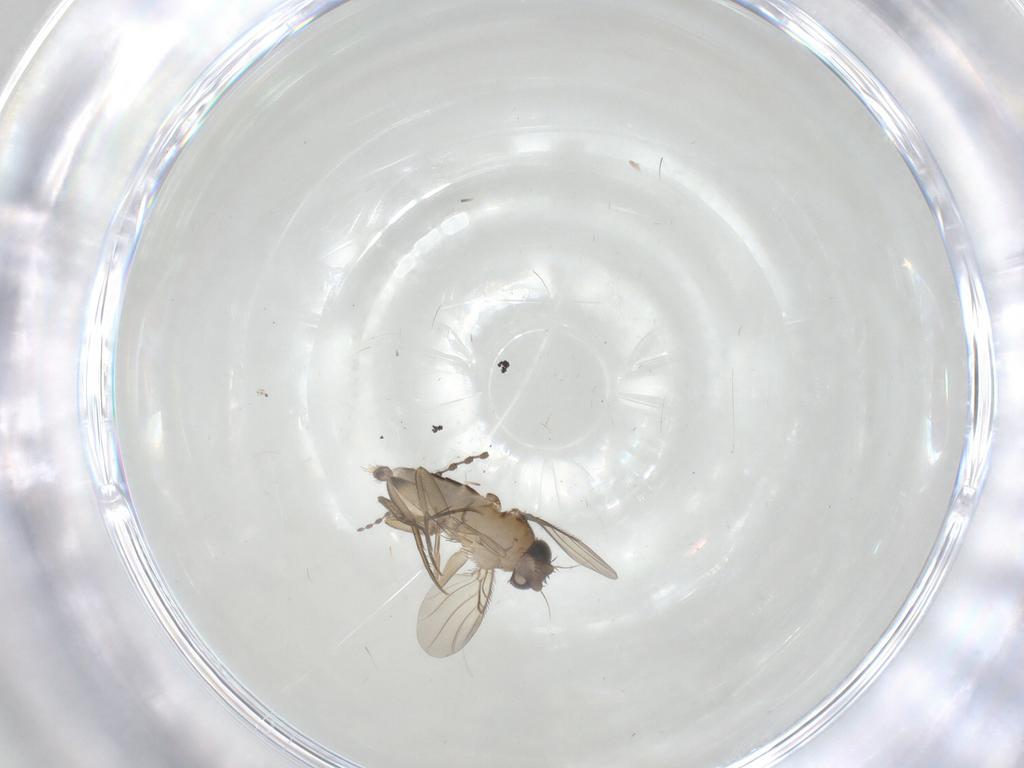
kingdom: Animalia
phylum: Arthropoda
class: Insecta
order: Diptera
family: Phoridae
